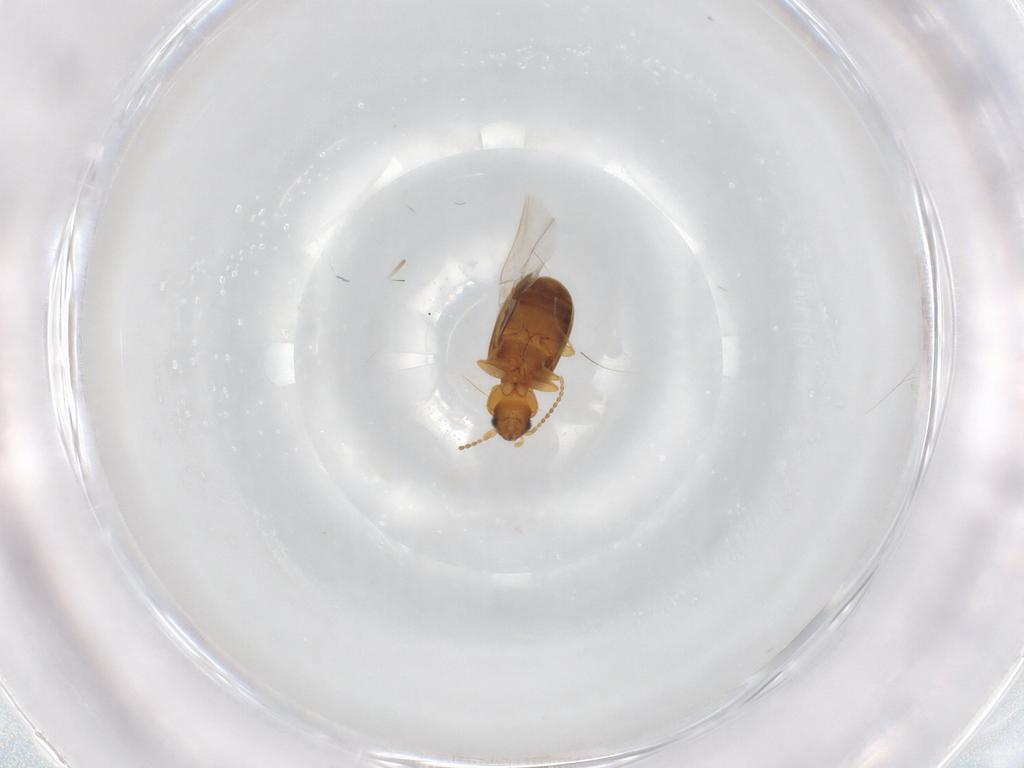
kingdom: Animalia
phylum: Arthropoda
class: Insecta
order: Coleoptera
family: Carabidae
